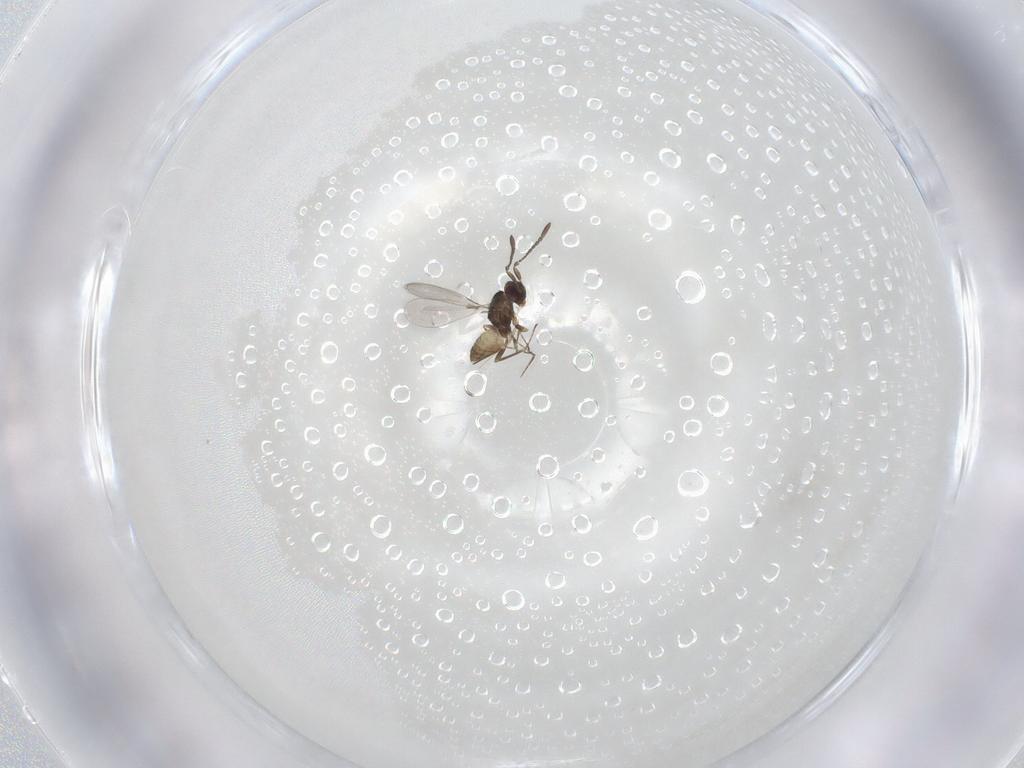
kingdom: Animalia
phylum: Arthropoda
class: Insecta
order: Hymenoptera
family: Mymaridae
